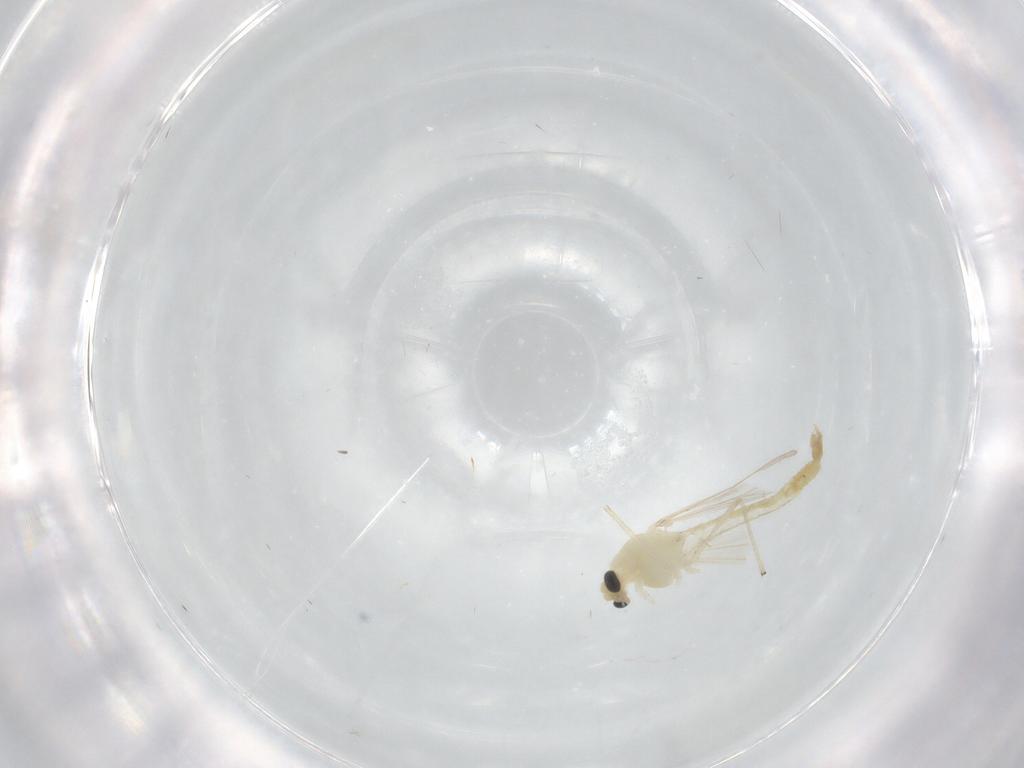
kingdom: Animalia
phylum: Arthropoda
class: Insecta
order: Diptera
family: Chironomidae
